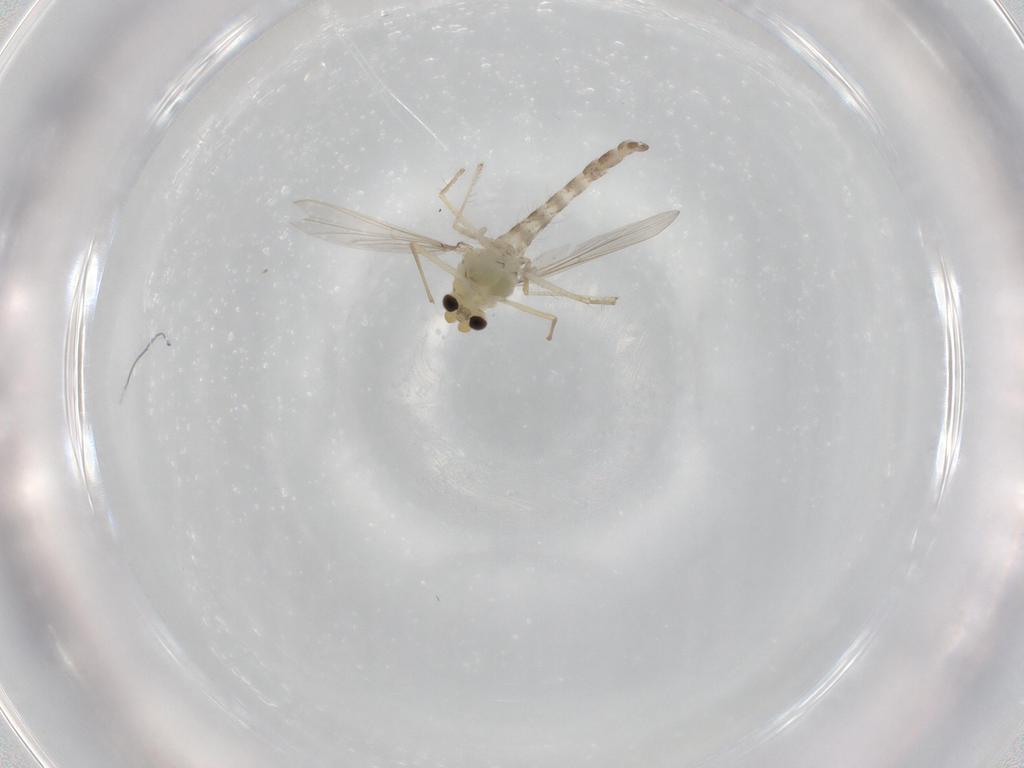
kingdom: Animalia
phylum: Arthropoda
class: Insecta
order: Diptera
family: Chironomidae
